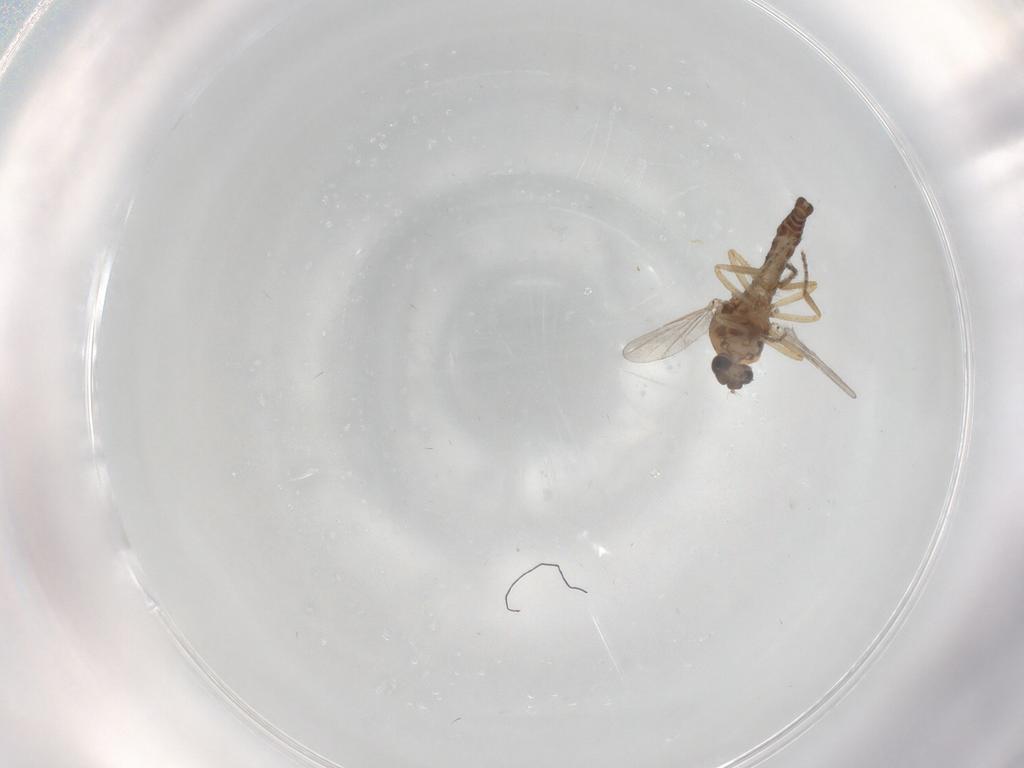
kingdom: Animalia
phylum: Arthropoda
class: Insecta
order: Diptera
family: Ceratopogonidae
